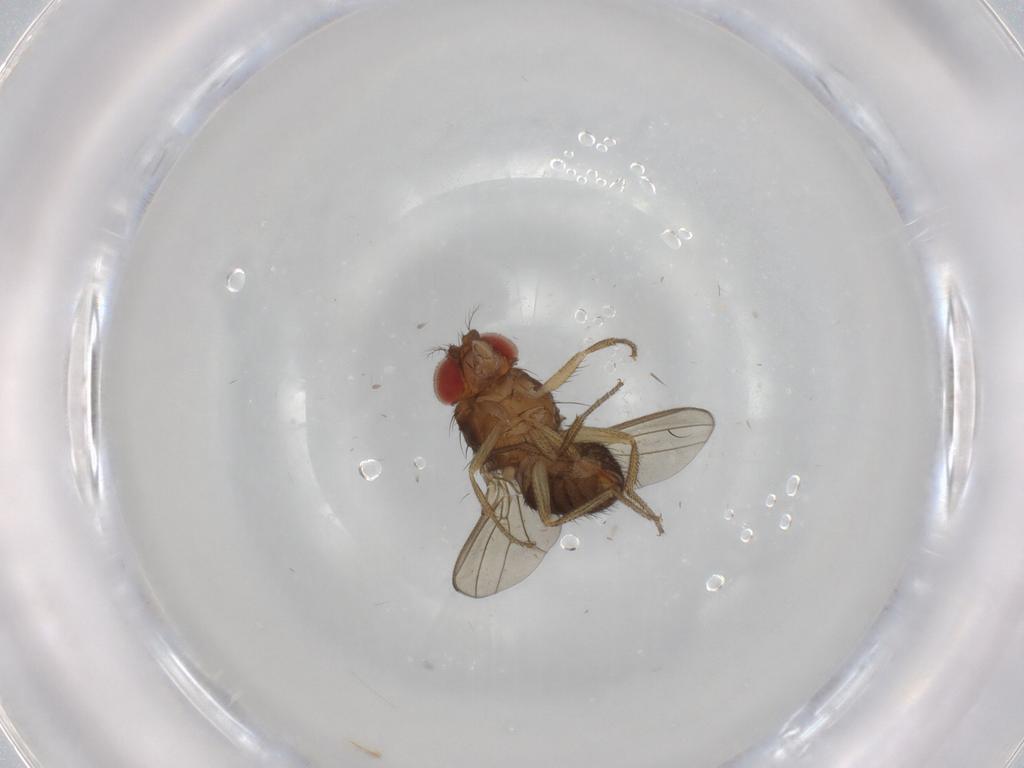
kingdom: Animalia
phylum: Arthropoda
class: Insecta
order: Diptera
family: Drosophilidae
